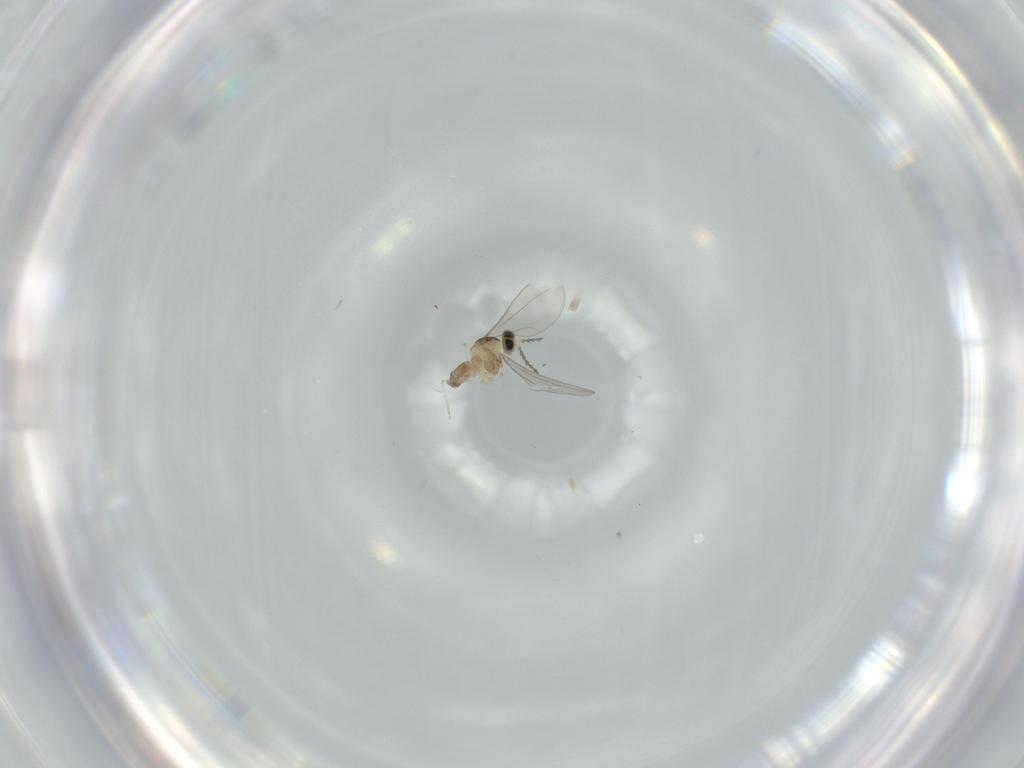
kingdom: Animalia
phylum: Arthropoda
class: Insecta
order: Diptera
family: Cecidomyiidae
